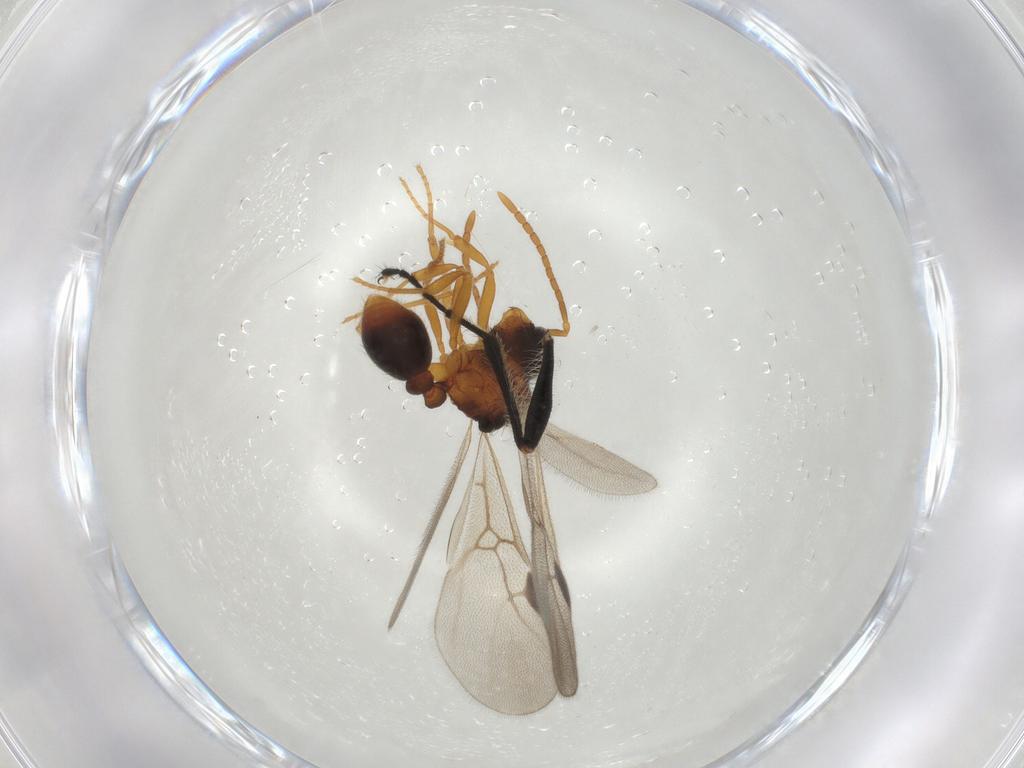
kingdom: Animalia
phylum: Arthropoda
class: Insecta
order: Hymenoptera
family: Formicidae
